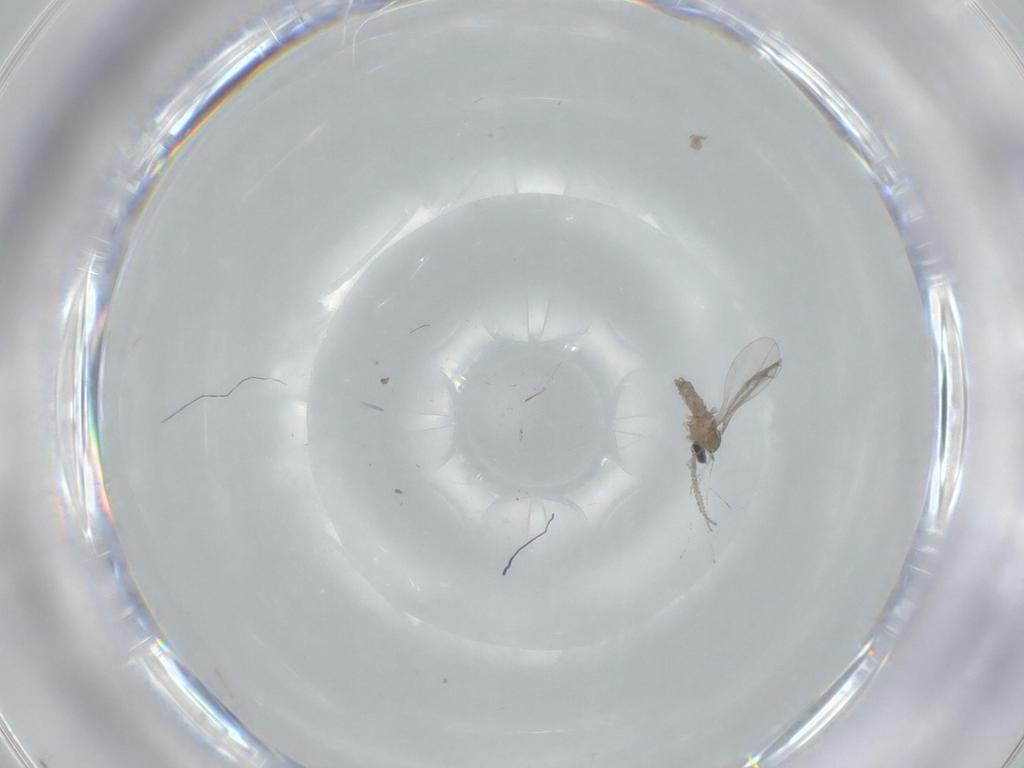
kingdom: Animalia
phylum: Arthropoda
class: Insecta
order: Diptera
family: Cecidomyiidae
